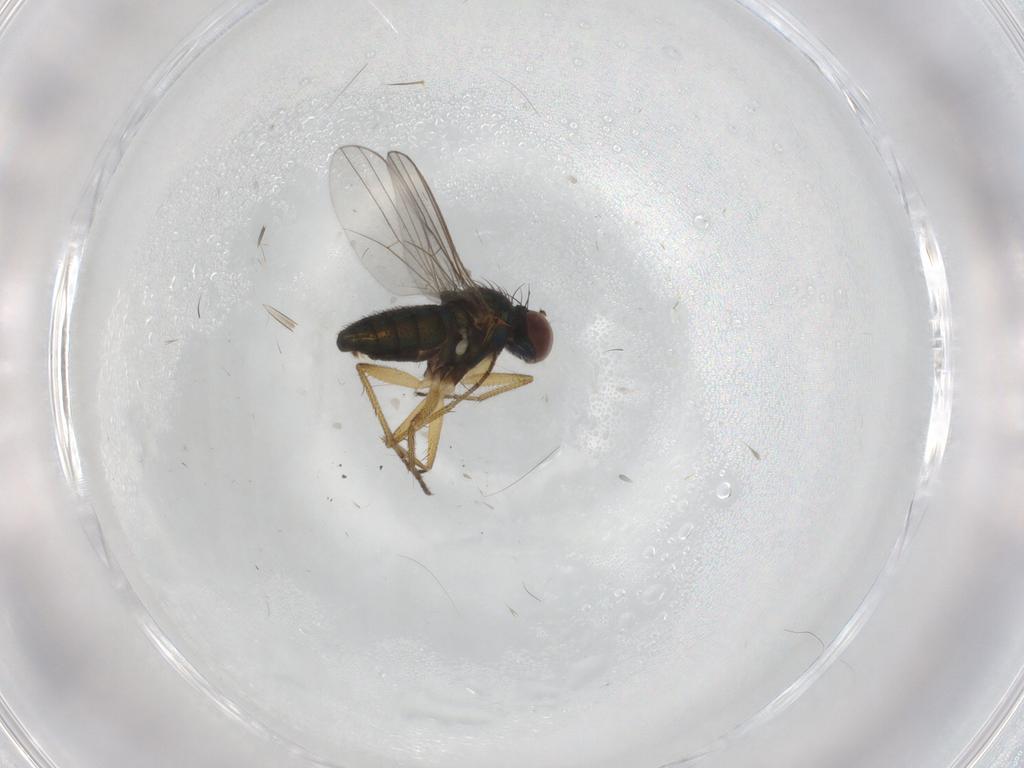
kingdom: Animalia
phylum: Arthropoda
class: Insecta
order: Diptera
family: Dolichopodidae
